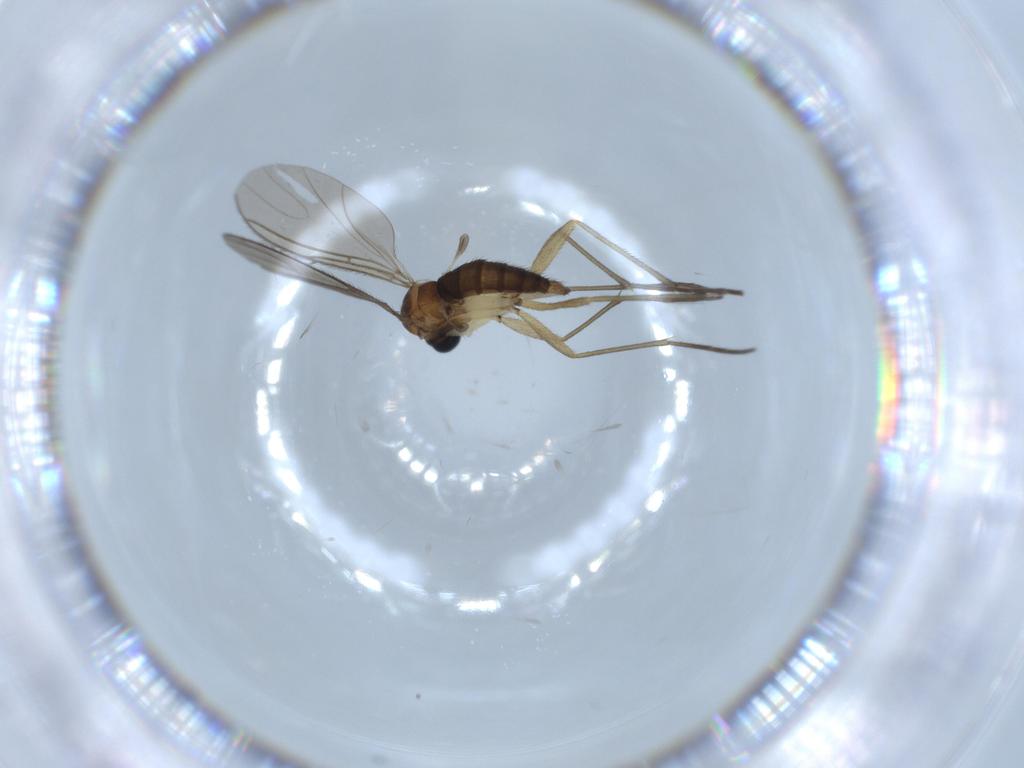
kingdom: Animalia
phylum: Arthropoda
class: Insecta
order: Diptera
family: Sciaridae
